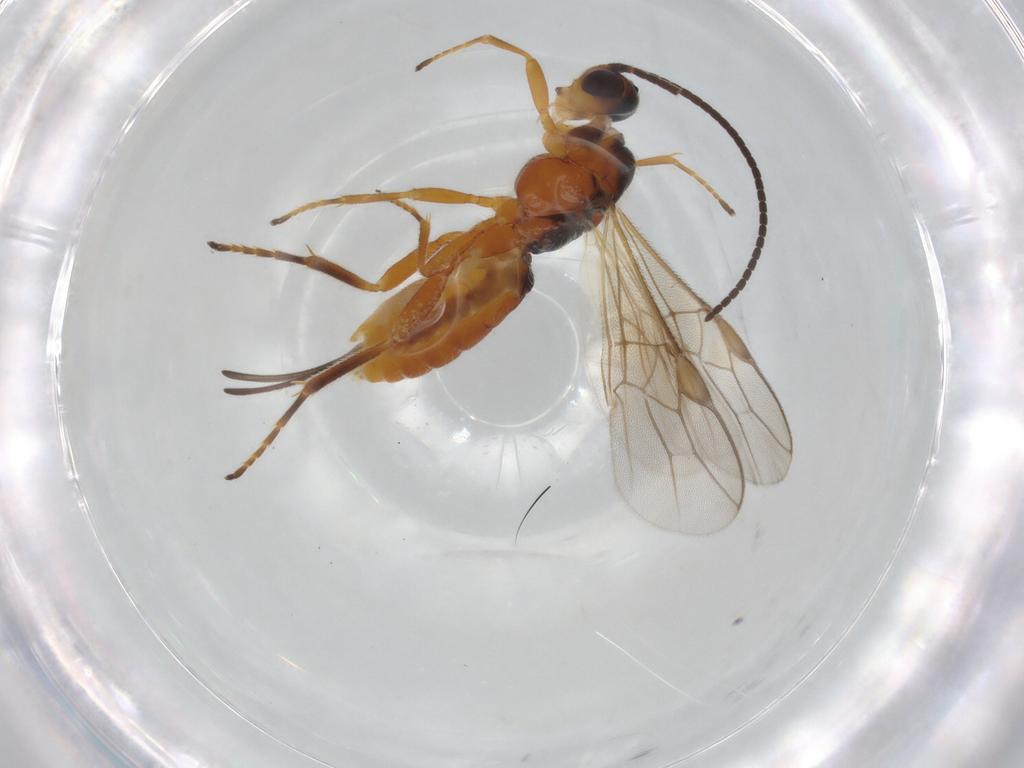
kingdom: Animalia
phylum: Arthropoda
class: Insecta
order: Hymenoptera
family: Braconidae
